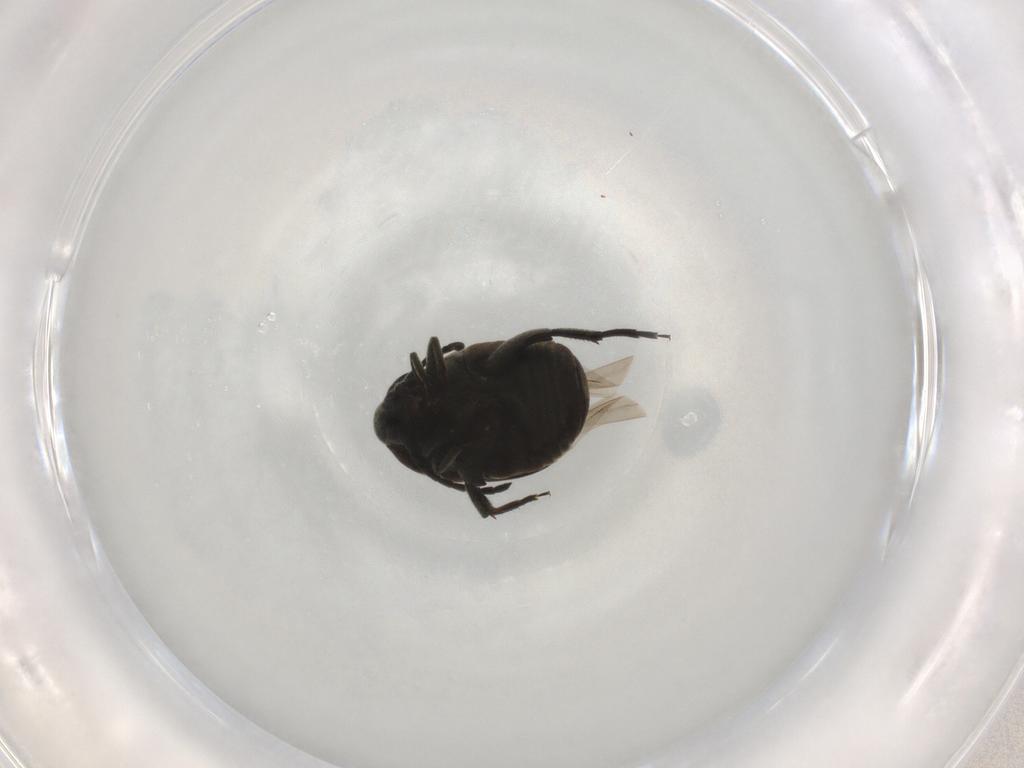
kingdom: Animalia
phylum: Arthropoda
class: Insecta
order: Coleoptera
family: Chrysomelidae
